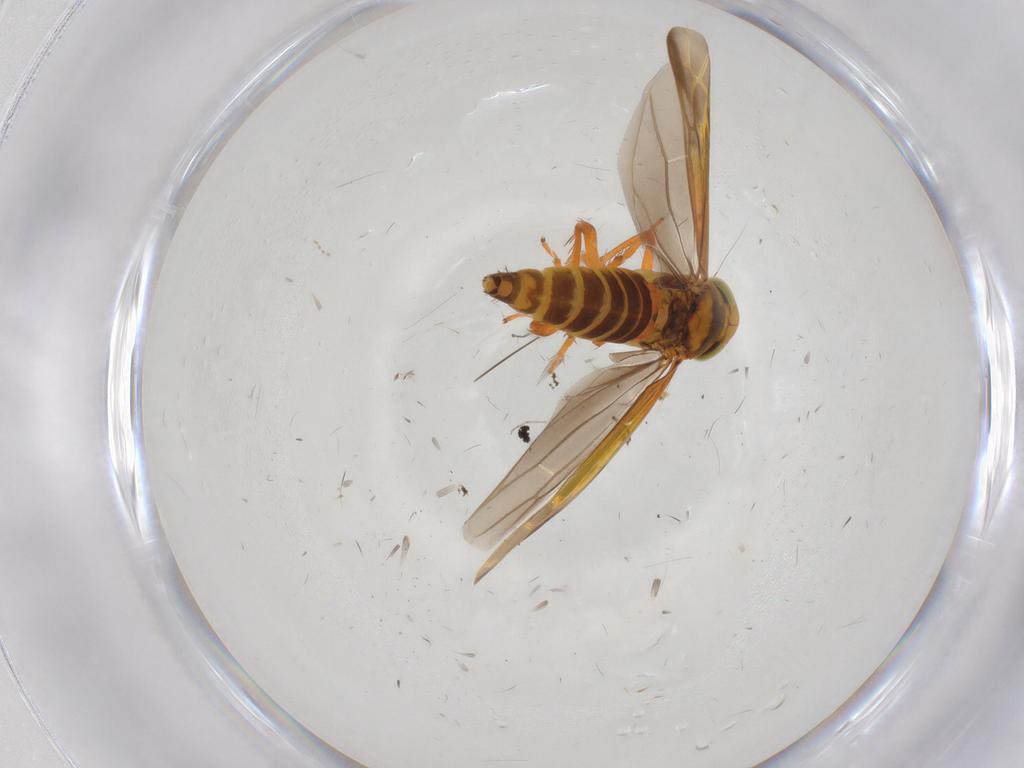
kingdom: Animalia
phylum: Arthropoda
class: Insecta
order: Hemiptera
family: Cicadellidae
